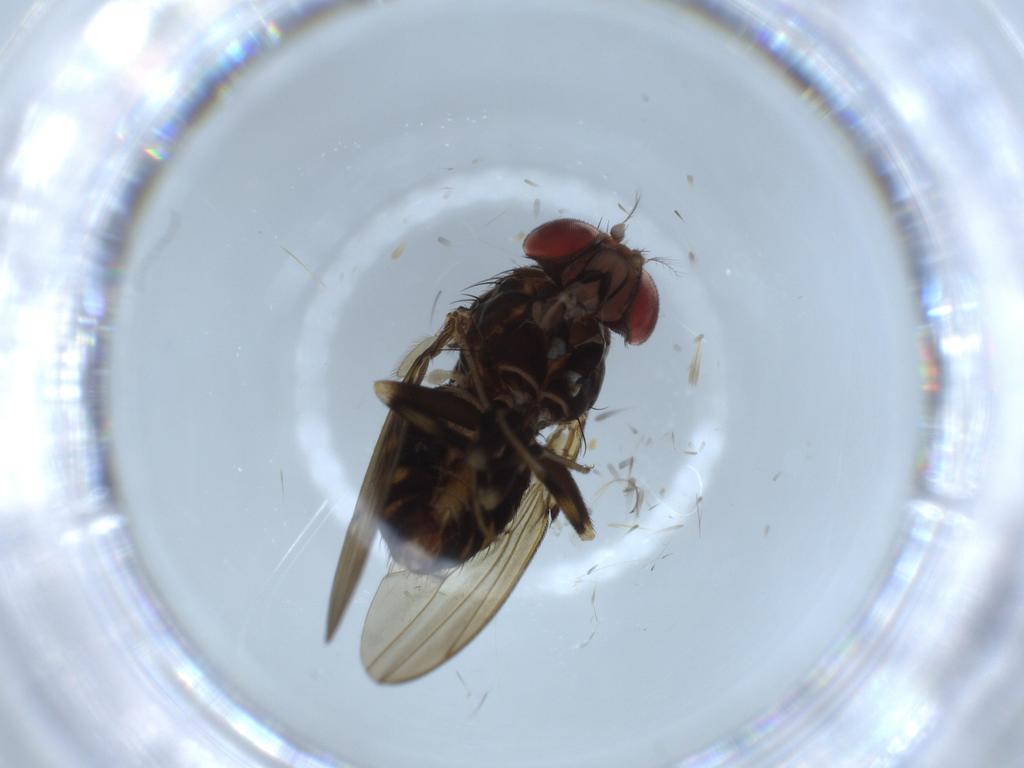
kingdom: Animalia
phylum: Arthropoda
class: Insecta
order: Diptera
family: Drosophilidae
